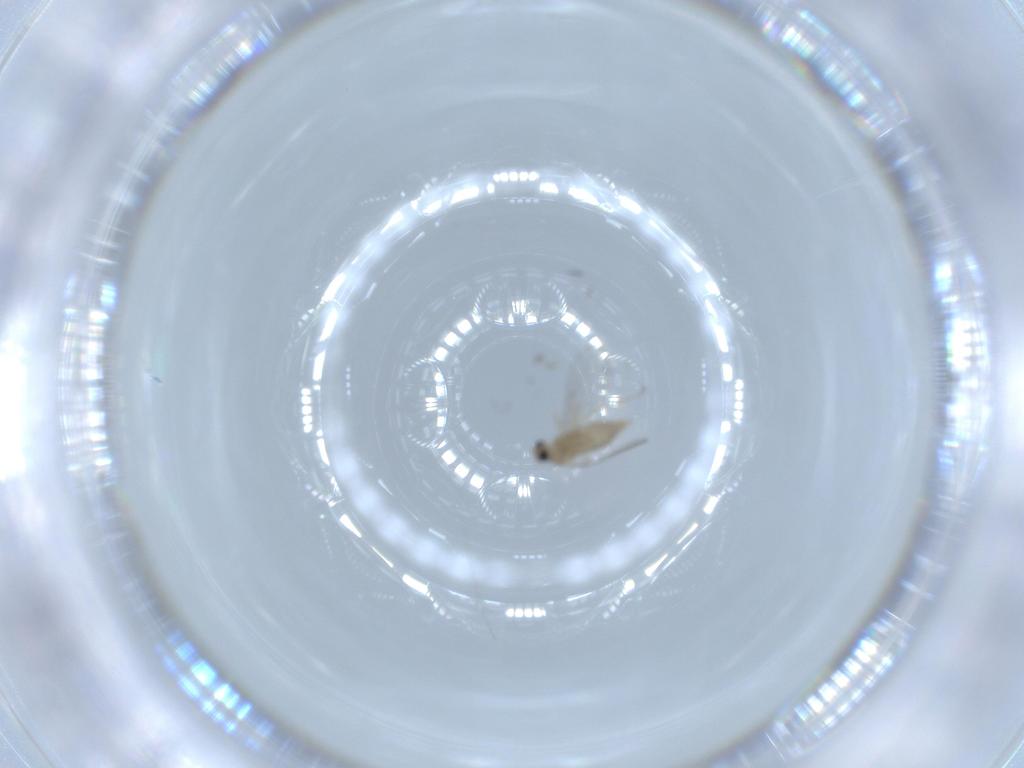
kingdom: Animalia
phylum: Arthropoda
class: Insecta
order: Diptera
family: Cecidomyiidae
